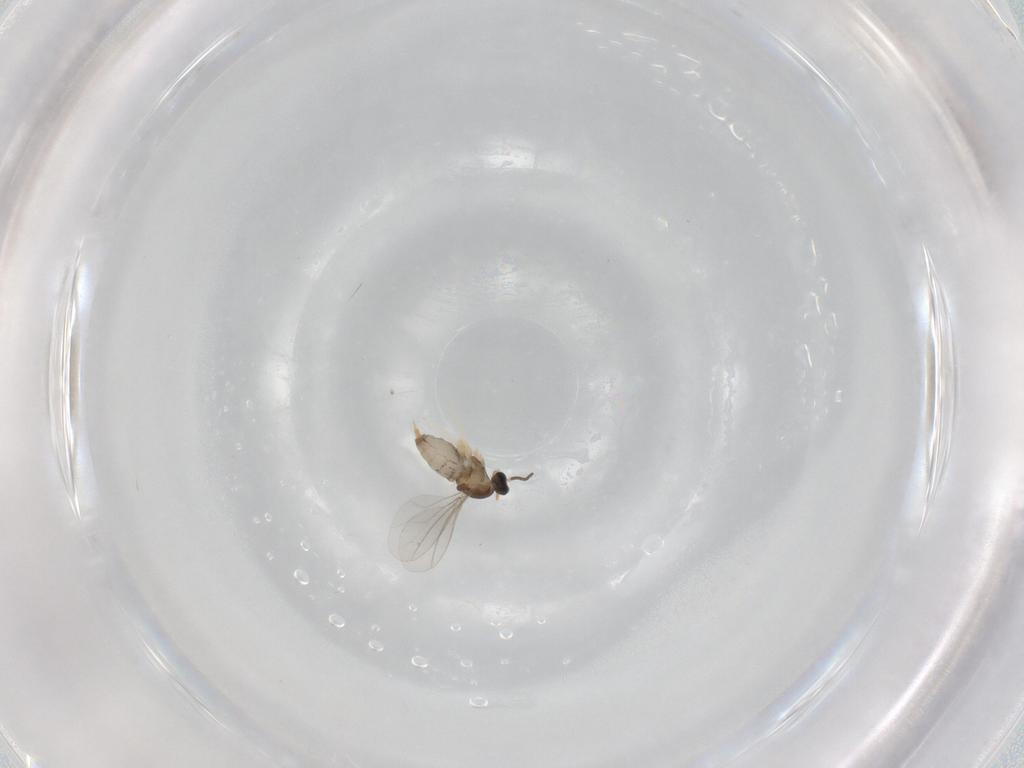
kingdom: Animalia
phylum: Arthropoda
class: Insecta
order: Diptera
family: Cecidomyiidae
